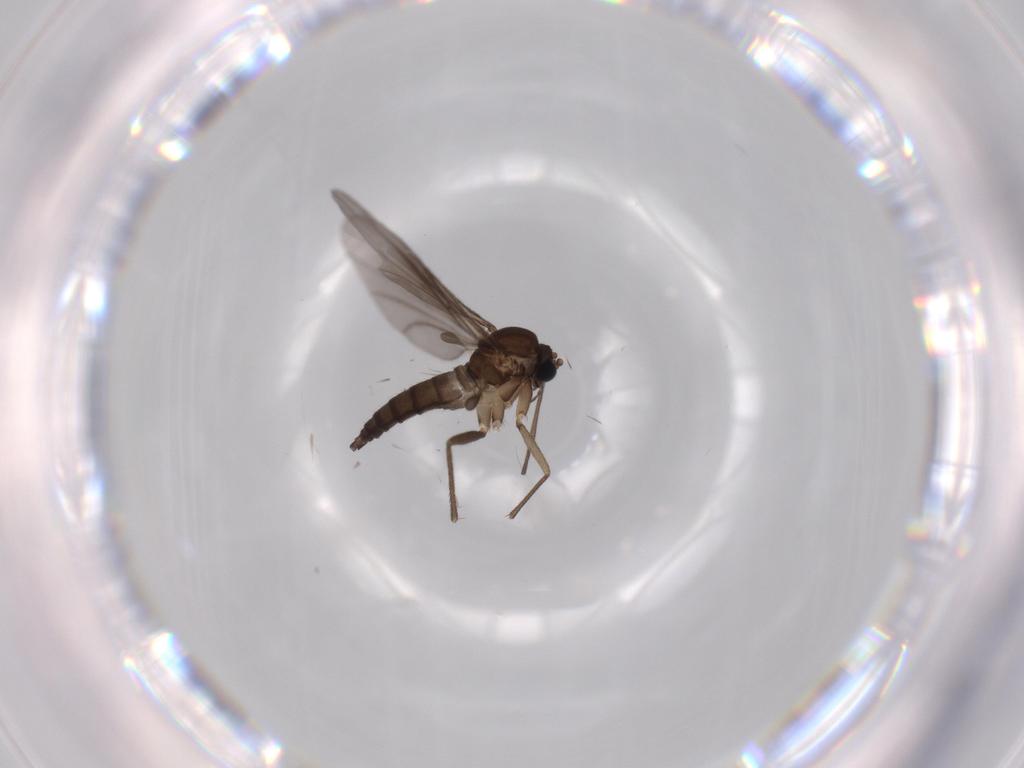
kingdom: Animalia
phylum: Arthropoda
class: Insecta
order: Diptera
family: Sciaridae
